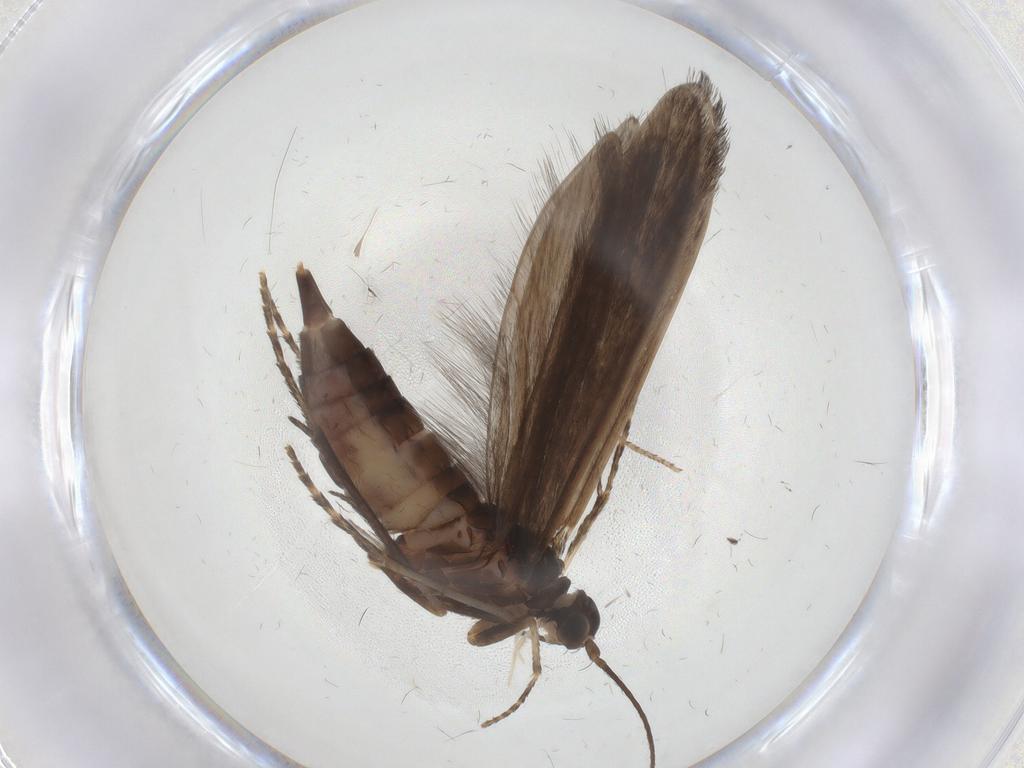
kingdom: Animalia
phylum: Arthropoda
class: Insecta
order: Trichoptera
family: Xiphocentronidae
